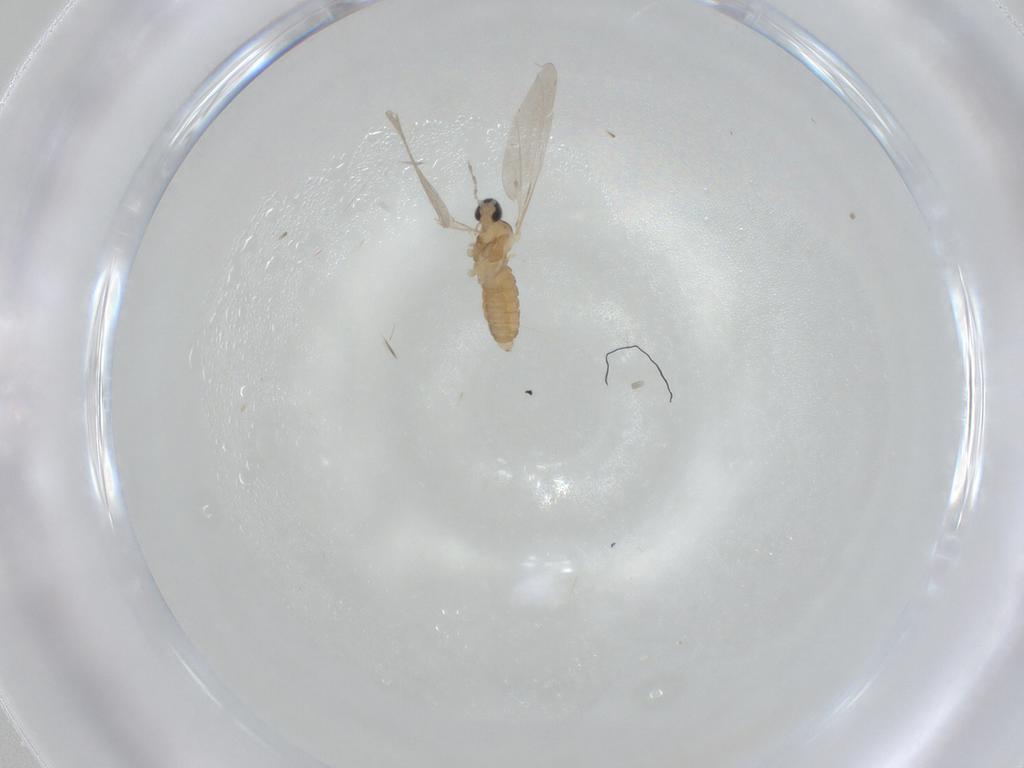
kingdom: Animalia
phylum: Arthropoda
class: Insecta
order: Diptera
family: Cecidomyiidae
